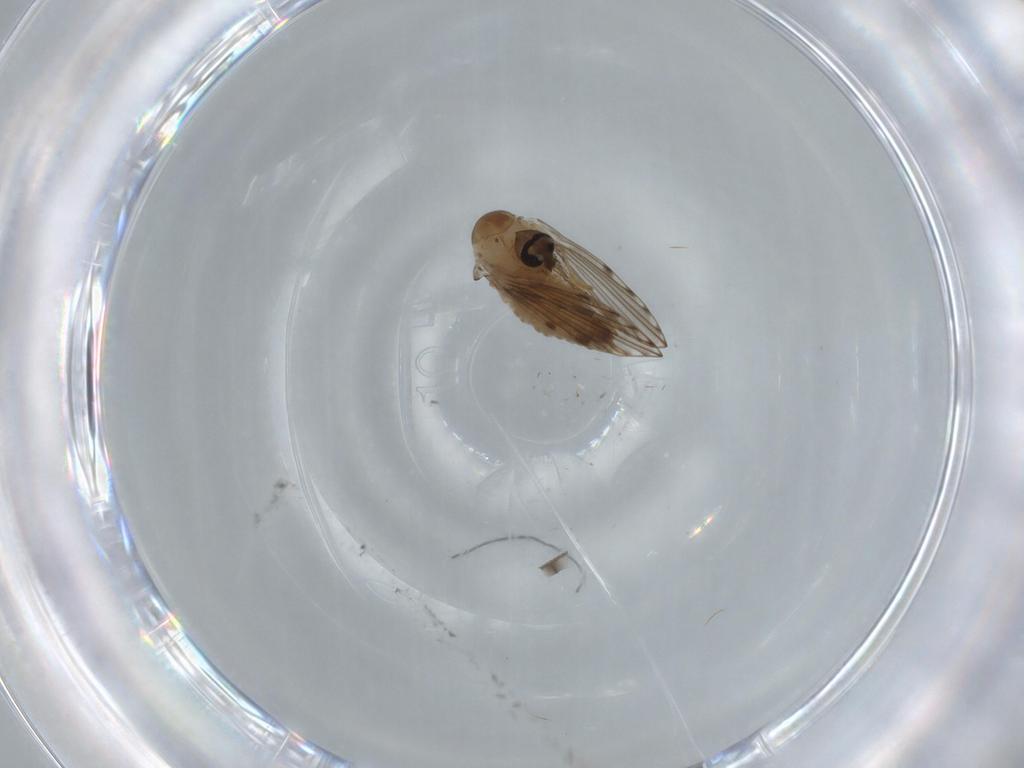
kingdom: Animalia
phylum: Arthropoda
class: Insecta
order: Diptera
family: Psychodidae
